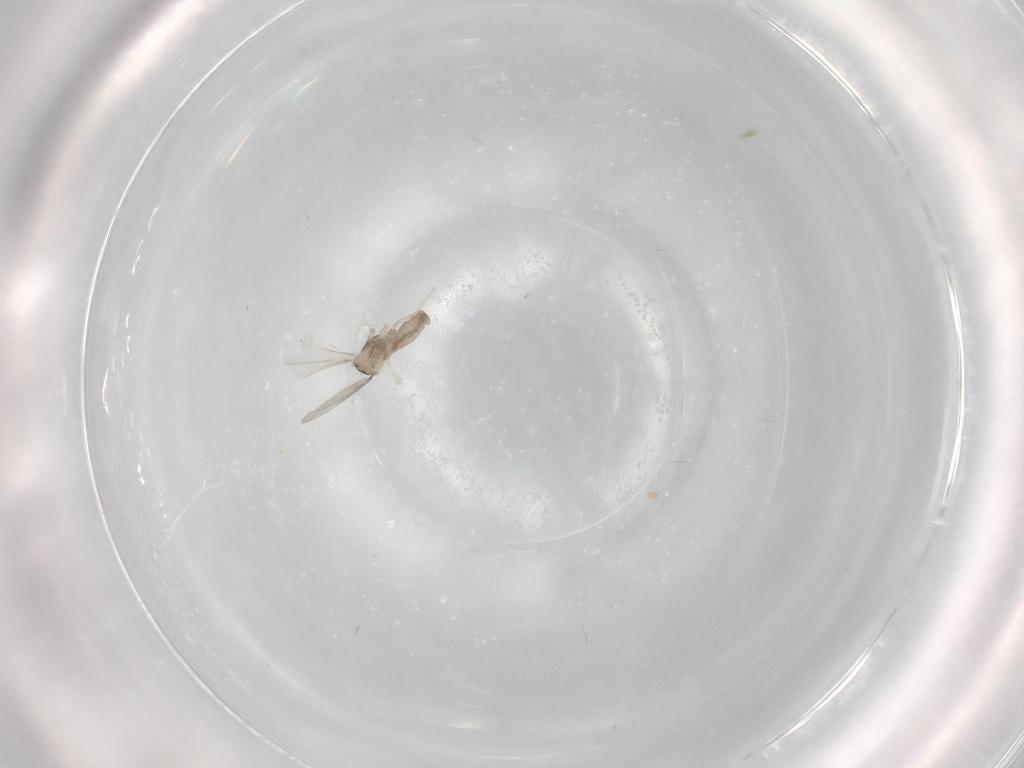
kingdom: Animalia
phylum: Arthropoda
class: Insecta
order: Diptera
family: Cecidomyiidae
